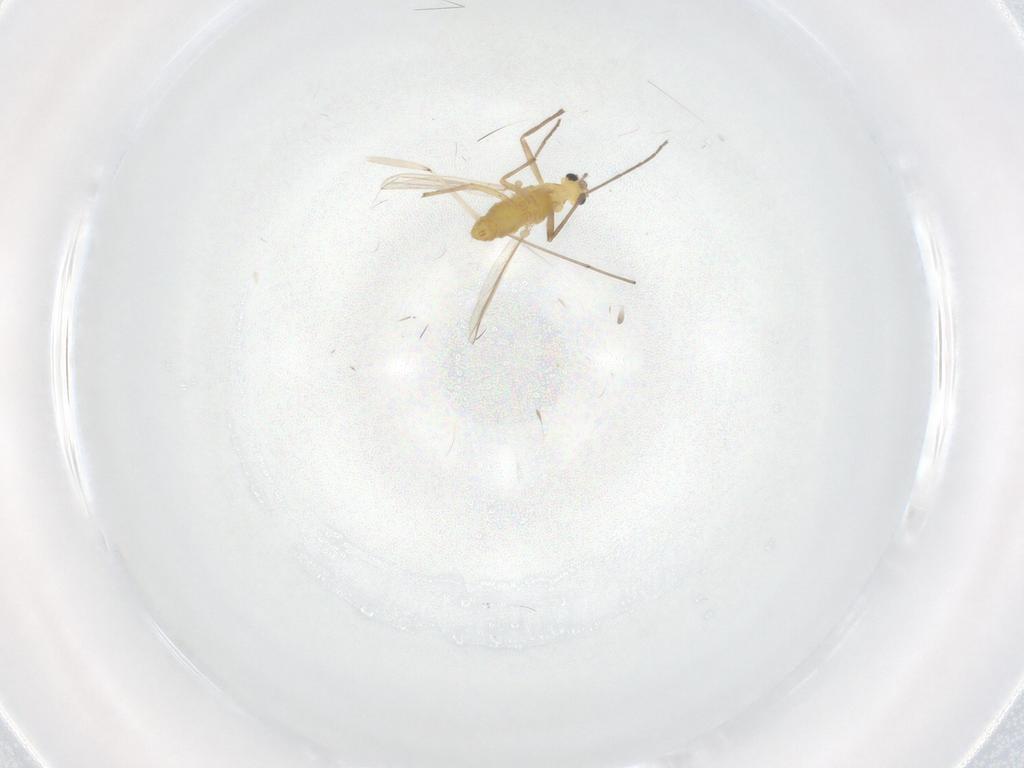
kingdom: Animalia
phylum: Arthropoda
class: Insecta
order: Diptera
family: Chironomidae
